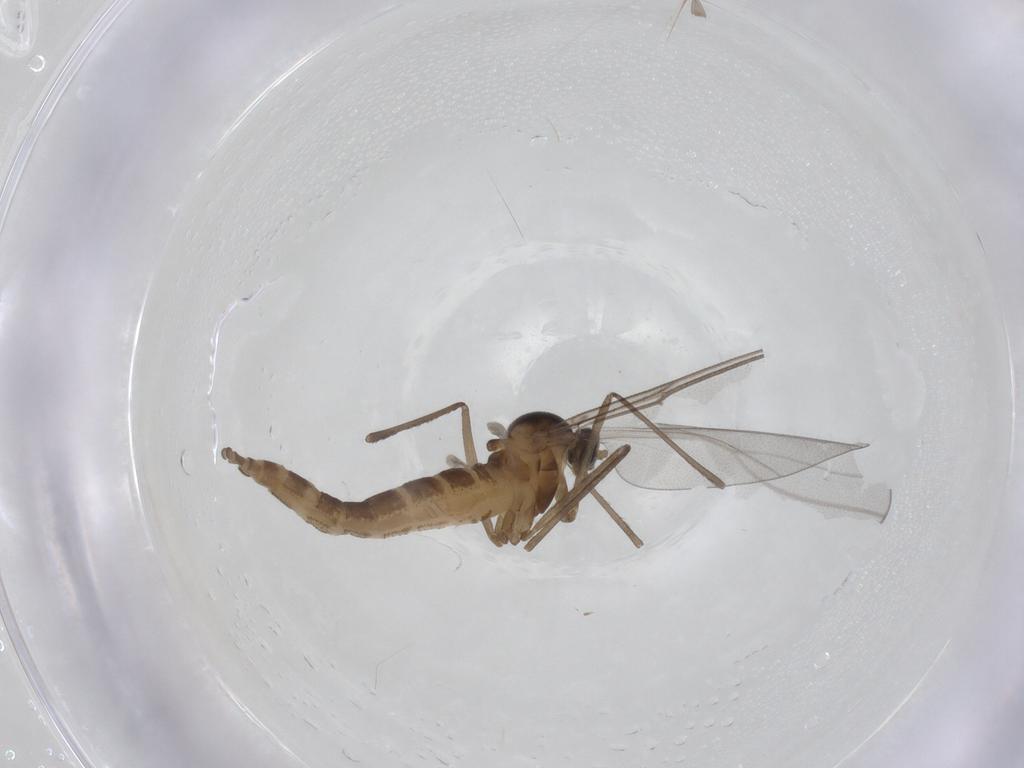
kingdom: Animalia
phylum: Arthropoda
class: Insecta
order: Diptera
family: Cecidomyiidae
